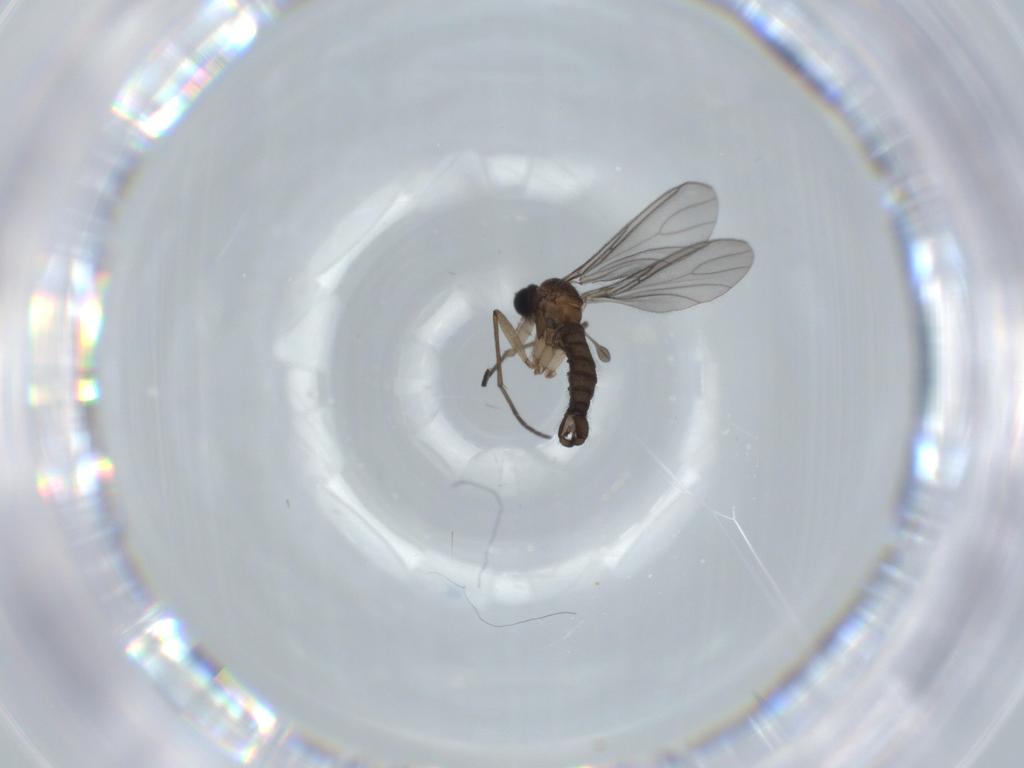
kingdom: Animalia
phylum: Arthropoda
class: Insecta
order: Diptera
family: Sciaridae
